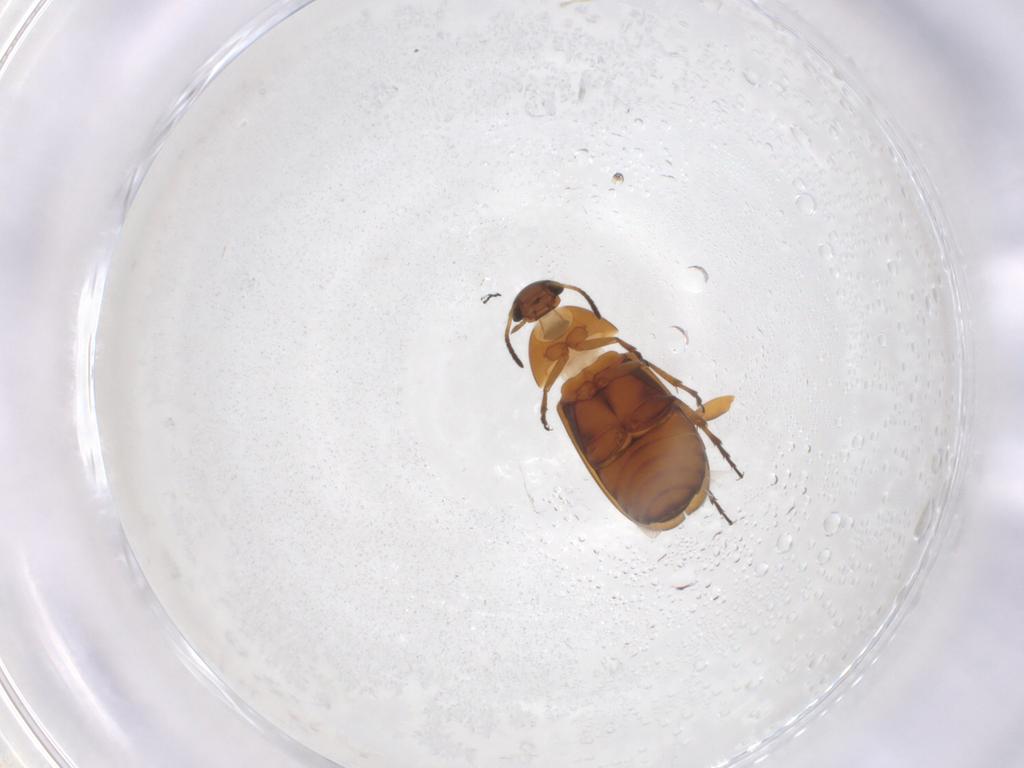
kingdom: Animalia
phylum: Arthropoda
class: Insecta
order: Coleoptera
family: Scraptiidae
